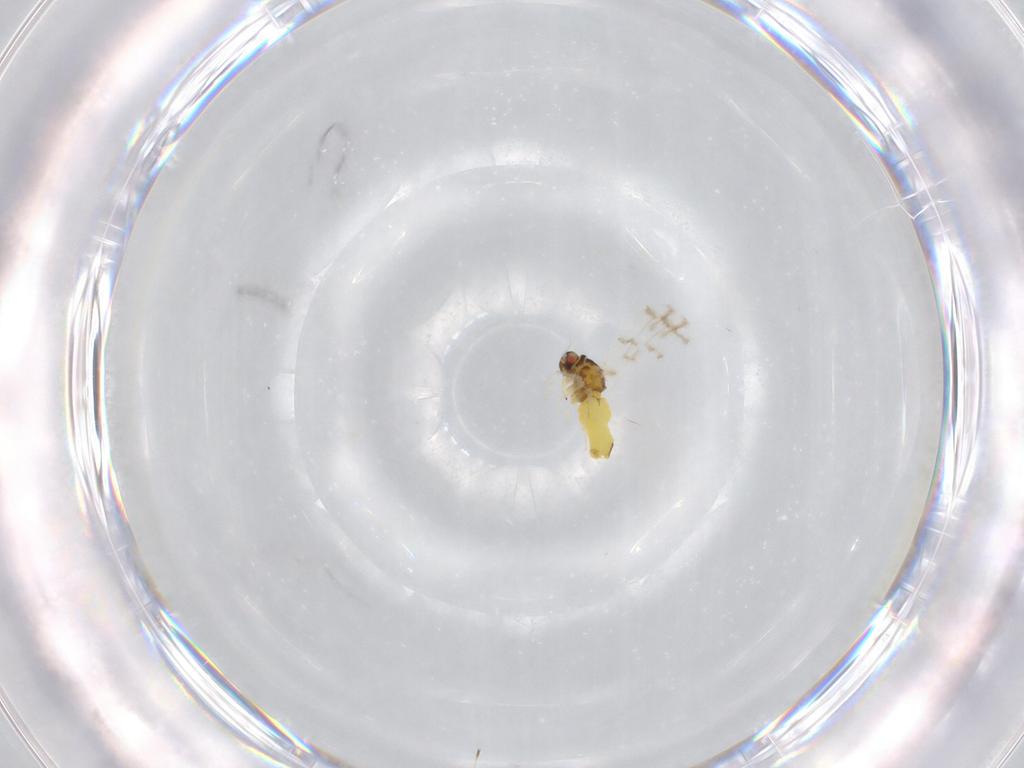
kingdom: Animalia
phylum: Arthropoda
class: Insecta
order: Hemiptera
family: Aleyrodidae
